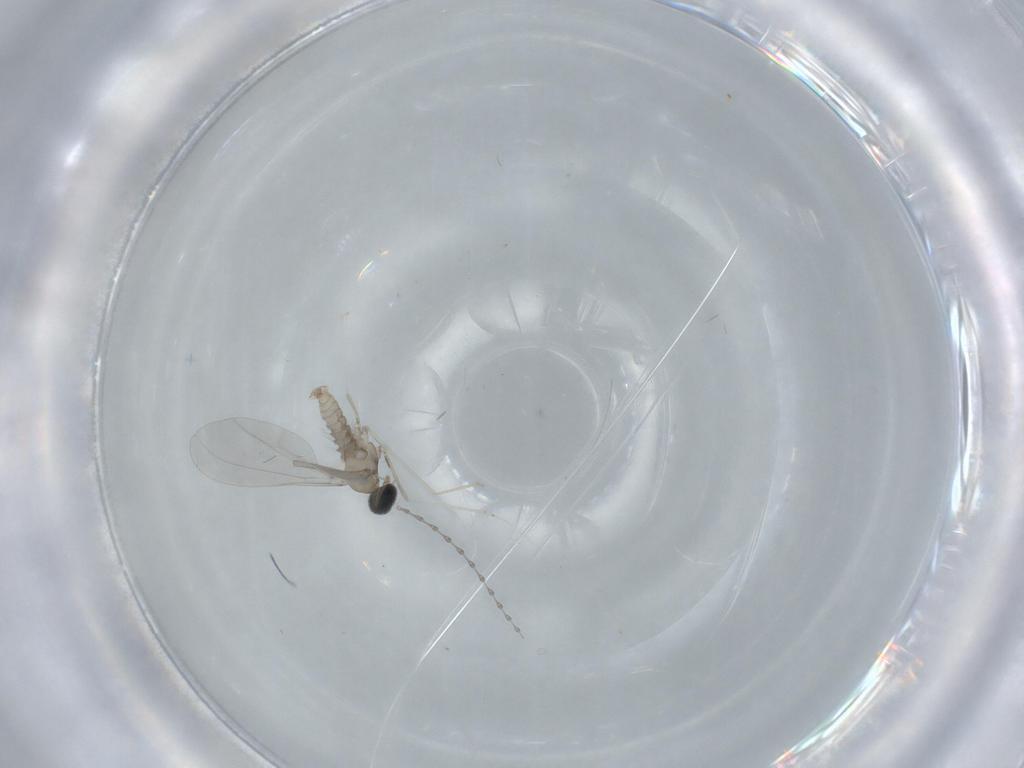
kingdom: Animalia
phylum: Arthropoda
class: Insecta
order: Diptera
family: Cecidomyiidae
